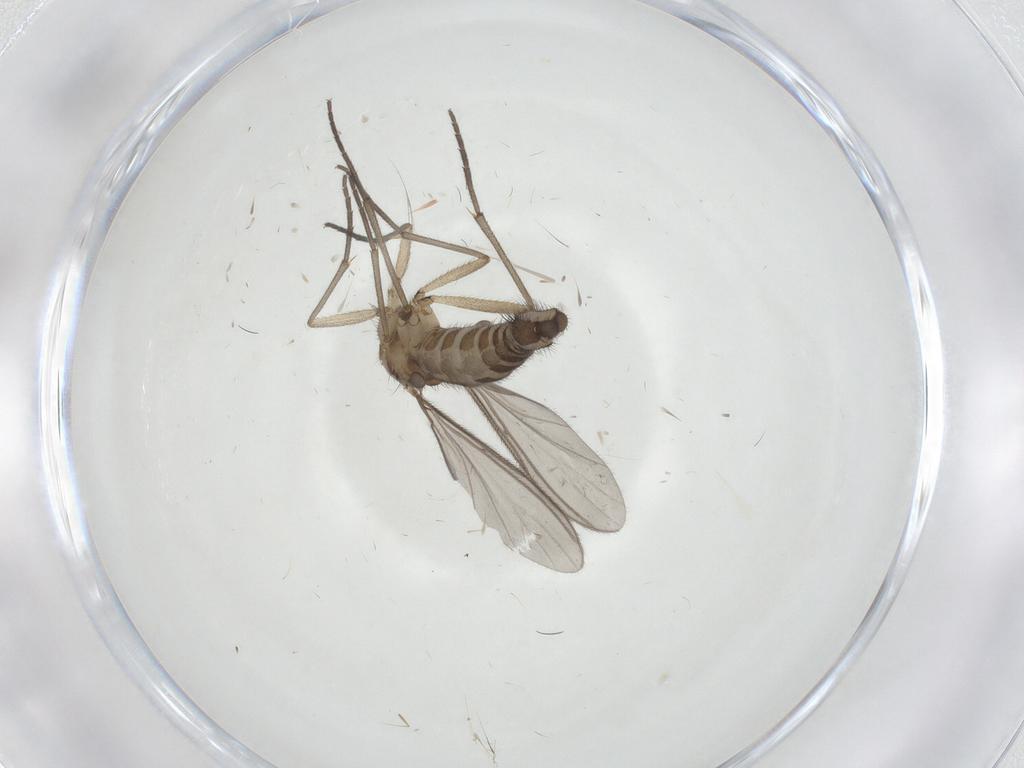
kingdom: Animalia
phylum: Arthropoda
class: Insecta
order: Diptera
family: Sciaridae
